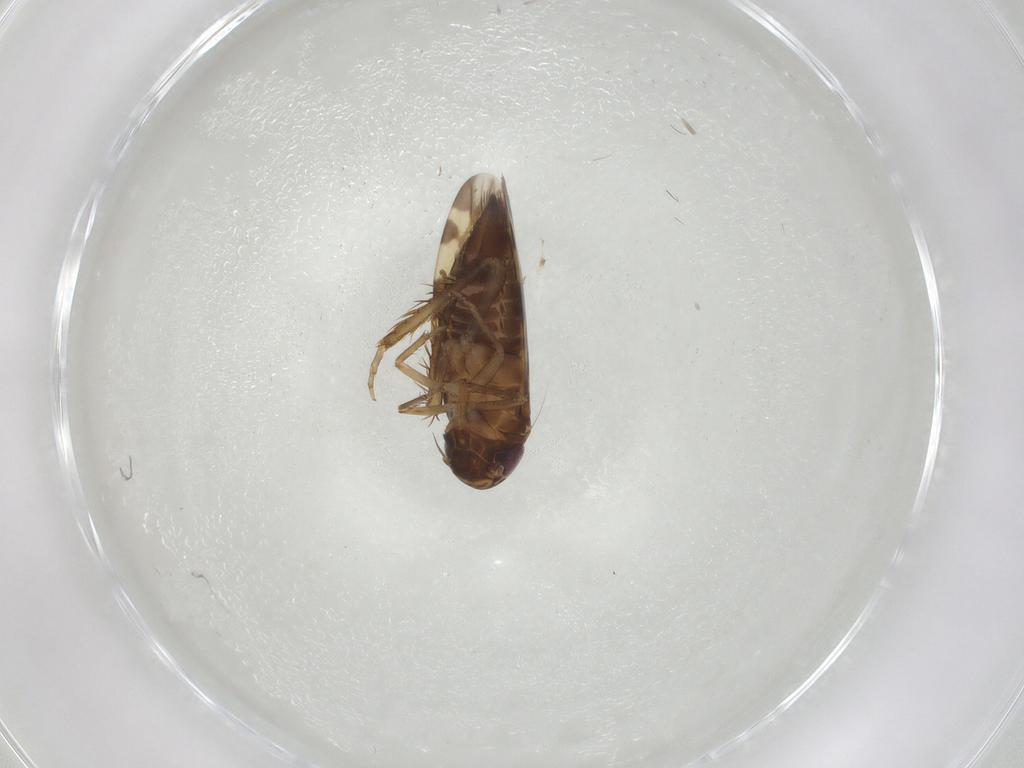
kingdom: Animalia
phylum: Arthropoda
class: Insecta
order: Hemiptera
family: Cicadellidae
